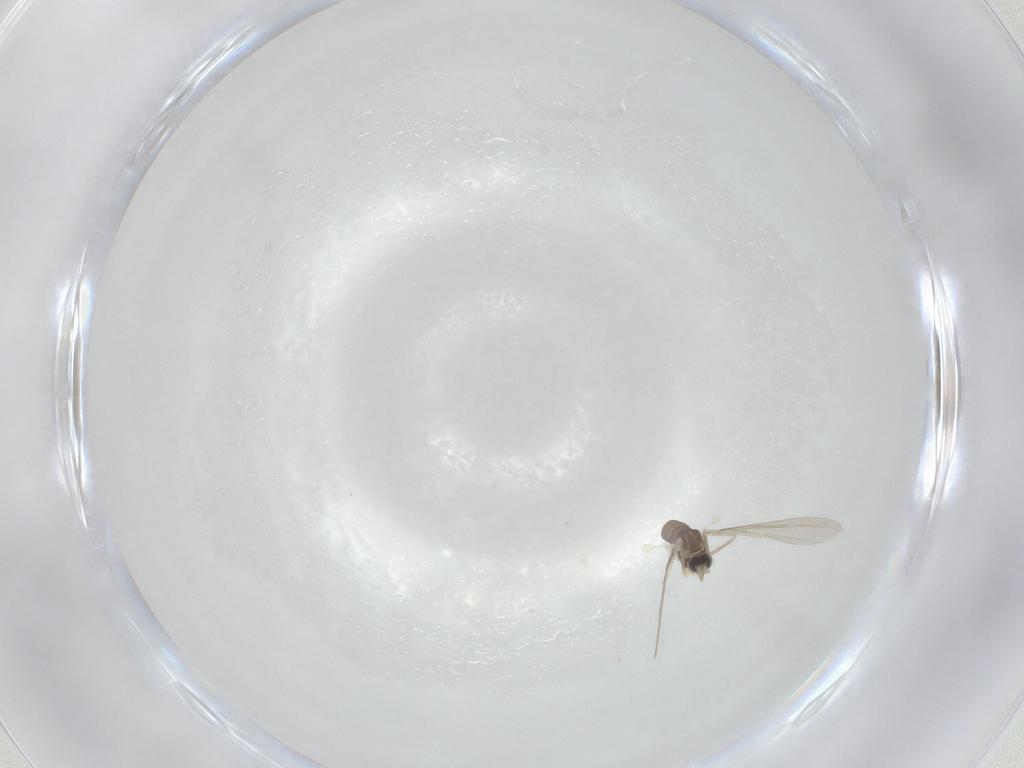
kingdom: Animalia
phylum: Arthropoda
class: Insecta
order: Diptera
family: Cecidomyiidae
